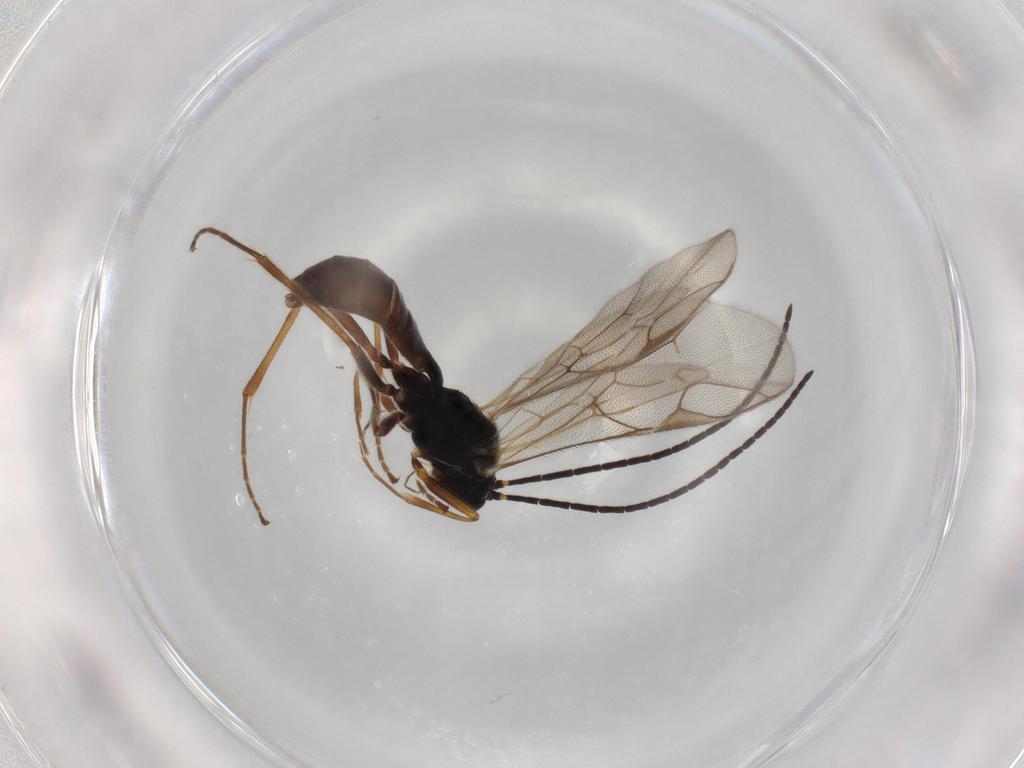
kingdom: Animalia
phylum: Arthropoda
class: Insecta
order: Hymenoptera
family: Ichneumonidae
